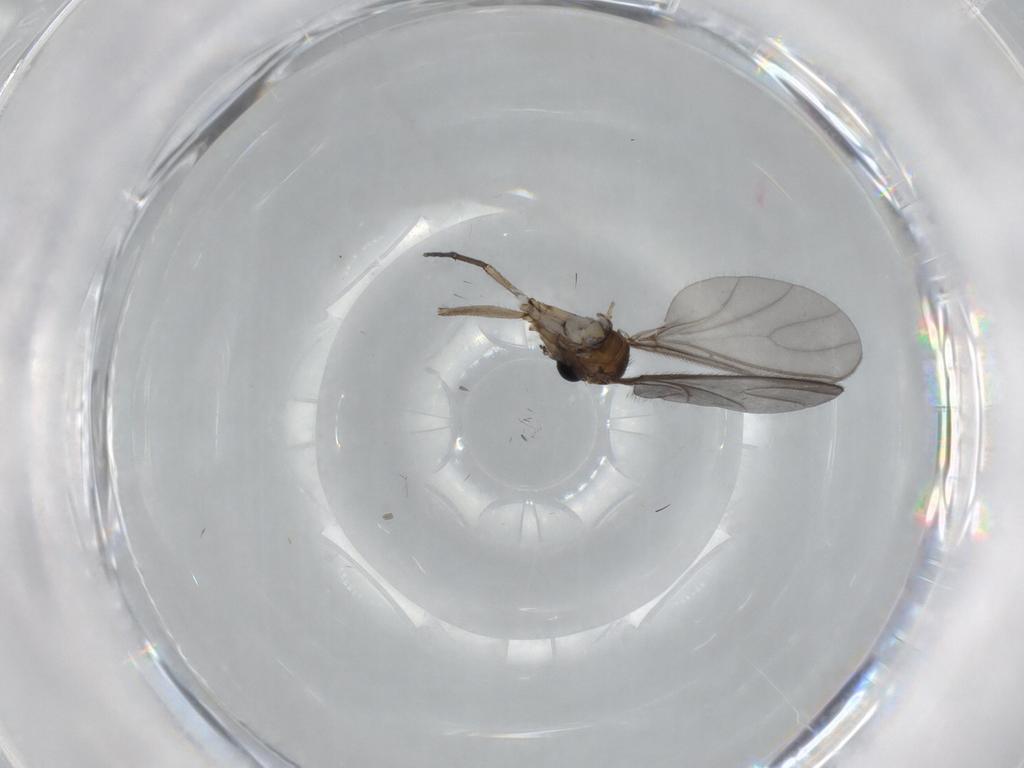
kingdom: Animalia
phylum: Arthropoda
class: Insecta
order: Diptera
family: Sciaridae
